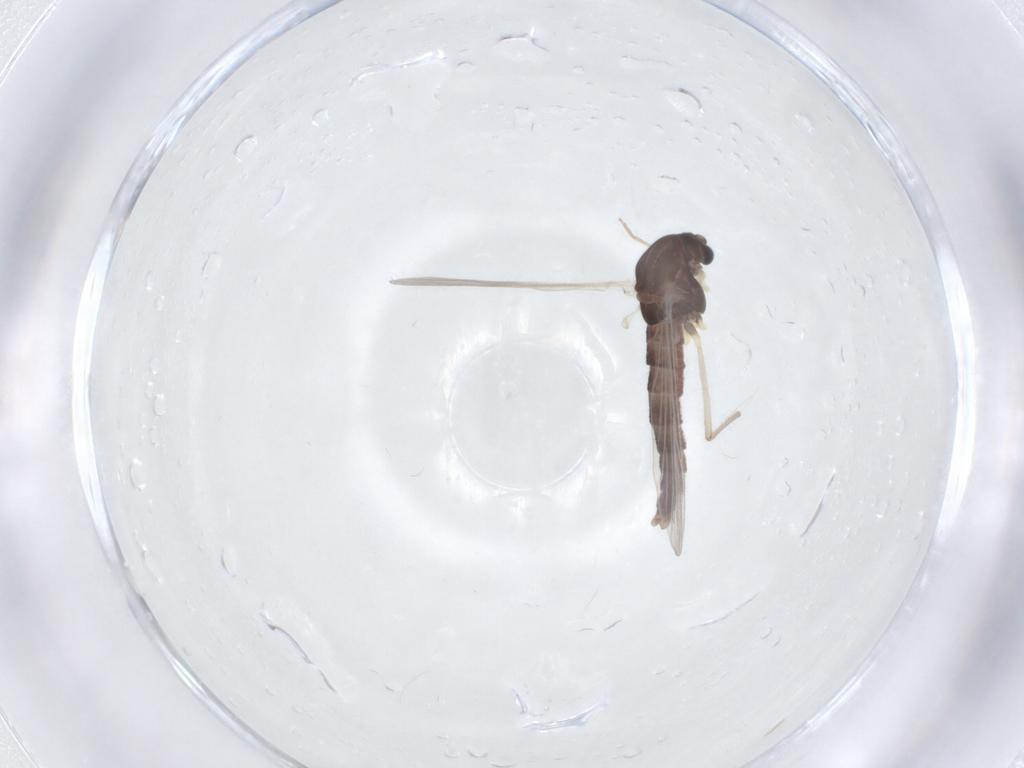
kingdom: Animalia
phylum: Arthropoda
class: Insecta
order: Diptera
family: Chironomidae
